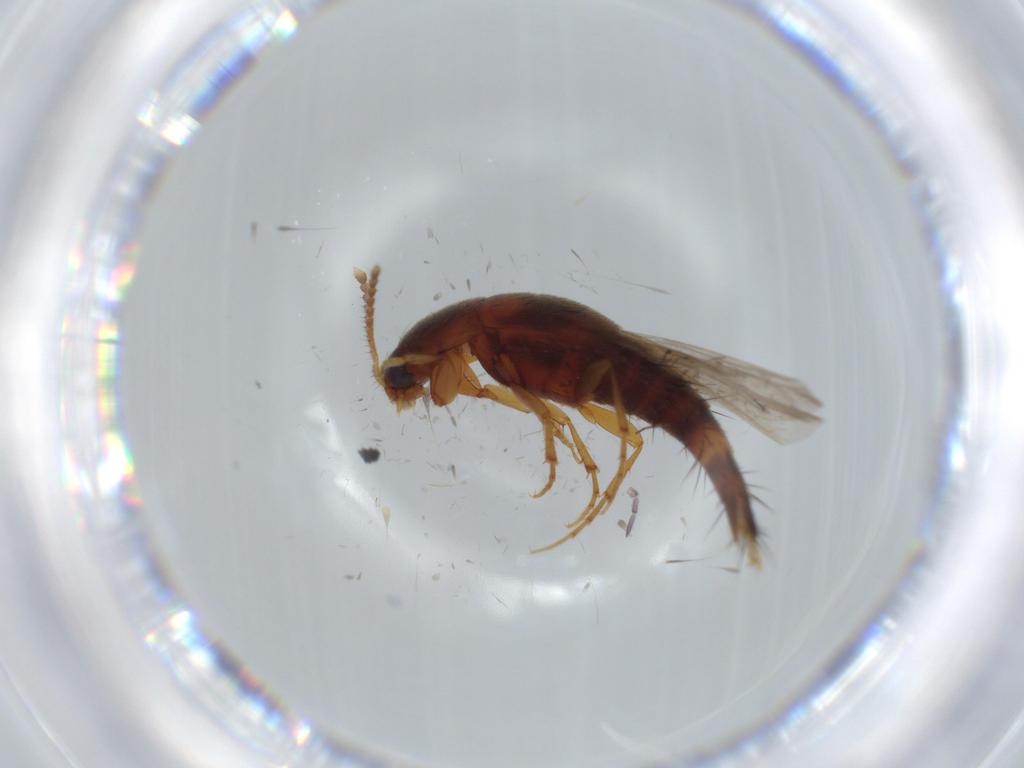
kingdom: Animalia
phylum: Arthropoda
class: Insecta
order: Coleoptera
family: Staphylinidae
